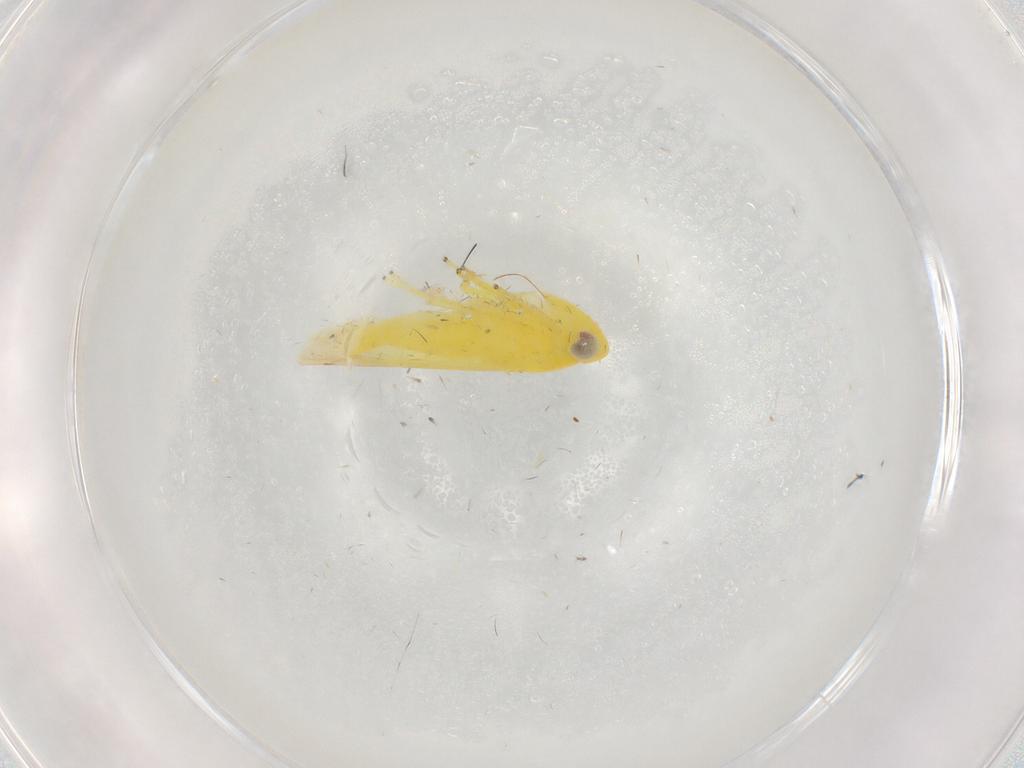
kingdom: Animalia
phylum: Arthropoda
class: Insecta
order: Hemiptera
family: Cicadellidae
